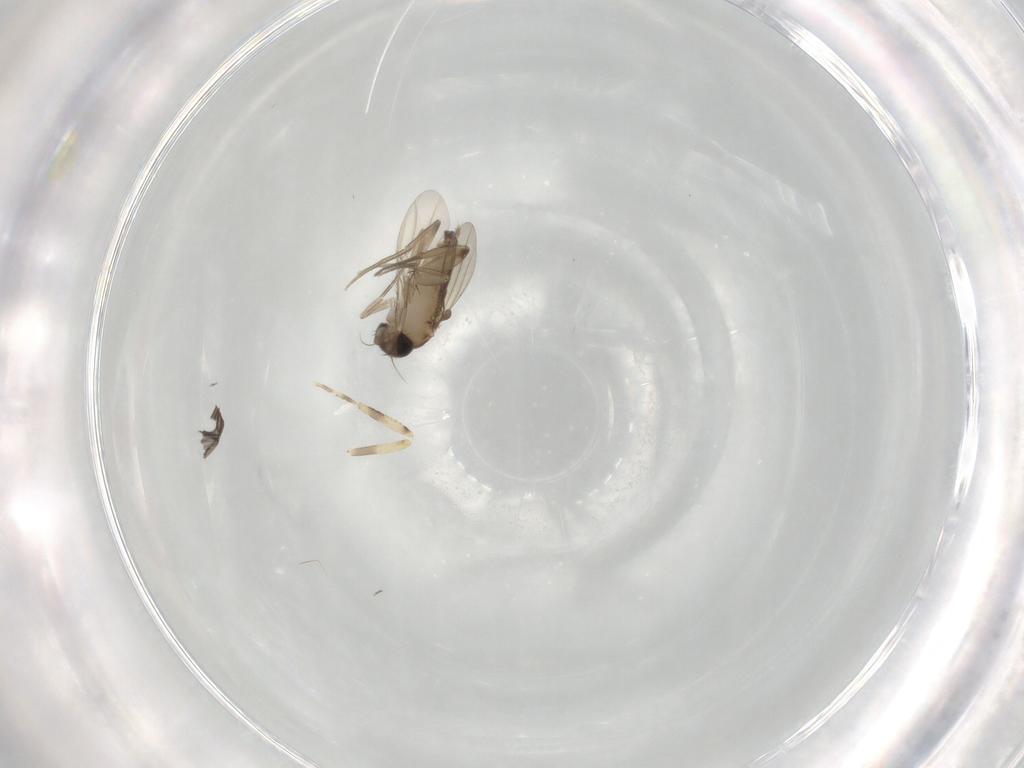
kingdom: Animalia
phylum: Arthropoda
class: Insecta
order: Diptera
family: Phoridae
